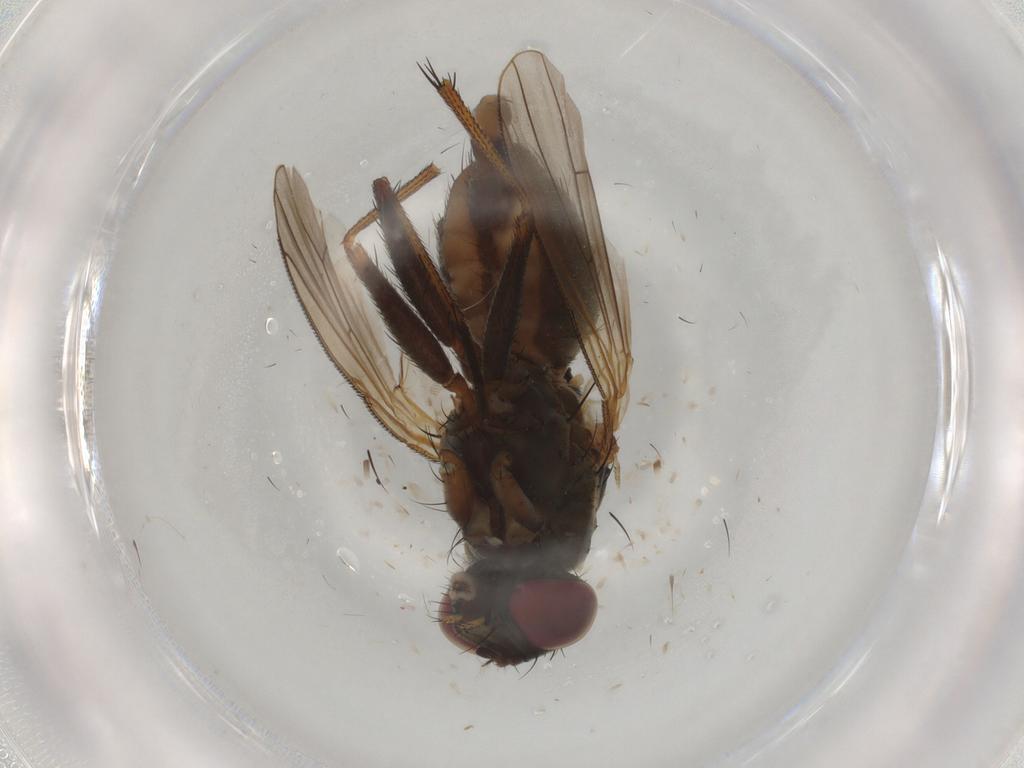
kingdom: Animalia
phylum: Arthropoda
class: Insecta
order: Diptera
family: Muscidae
